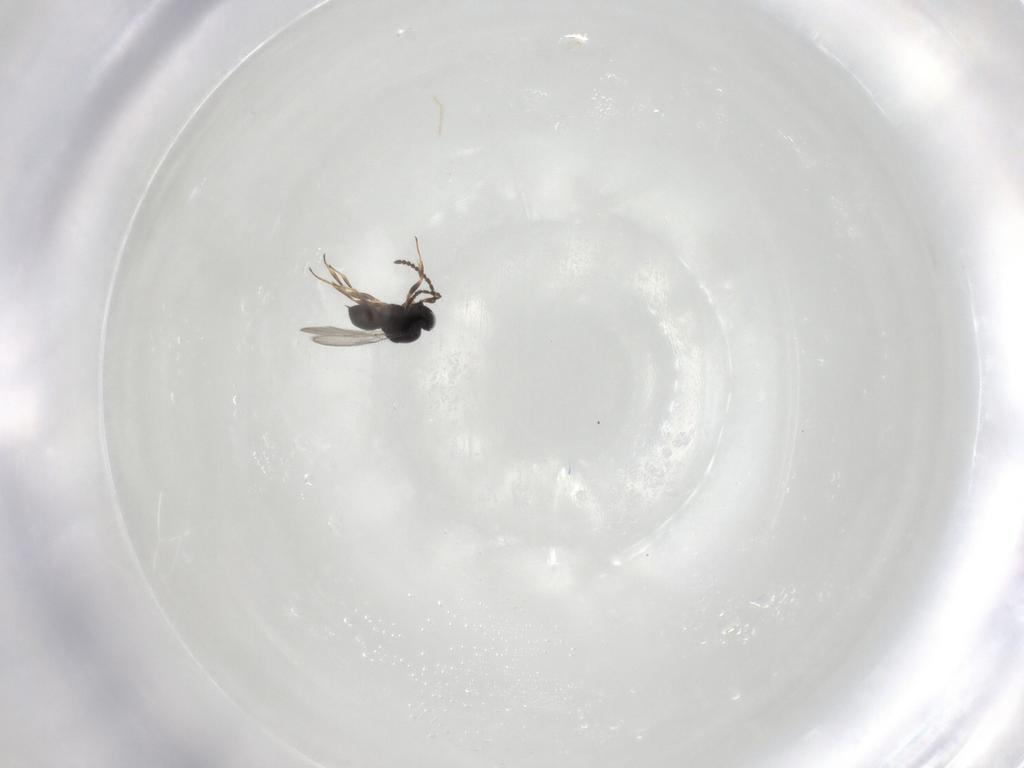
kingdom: Animalia
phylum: Arthropoda
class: Insecta
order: Hymenoptera
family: Scelionidae
